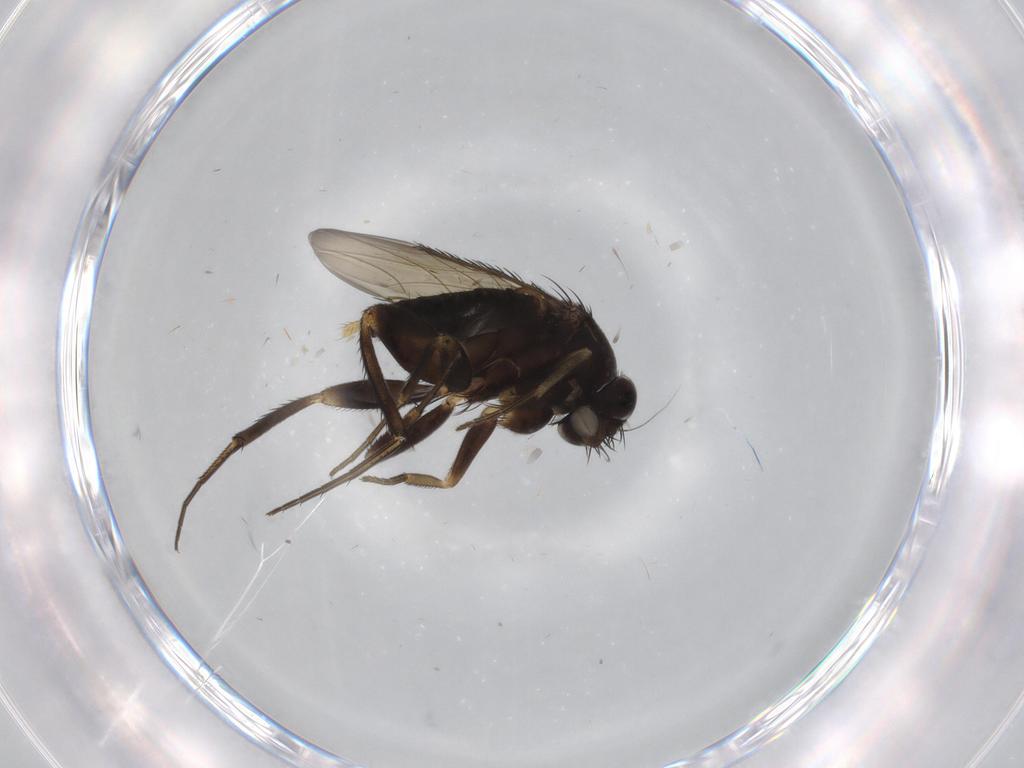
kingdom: Animalia
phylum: Arthropoda
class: Insecta
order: Diptera
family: Phoridae
